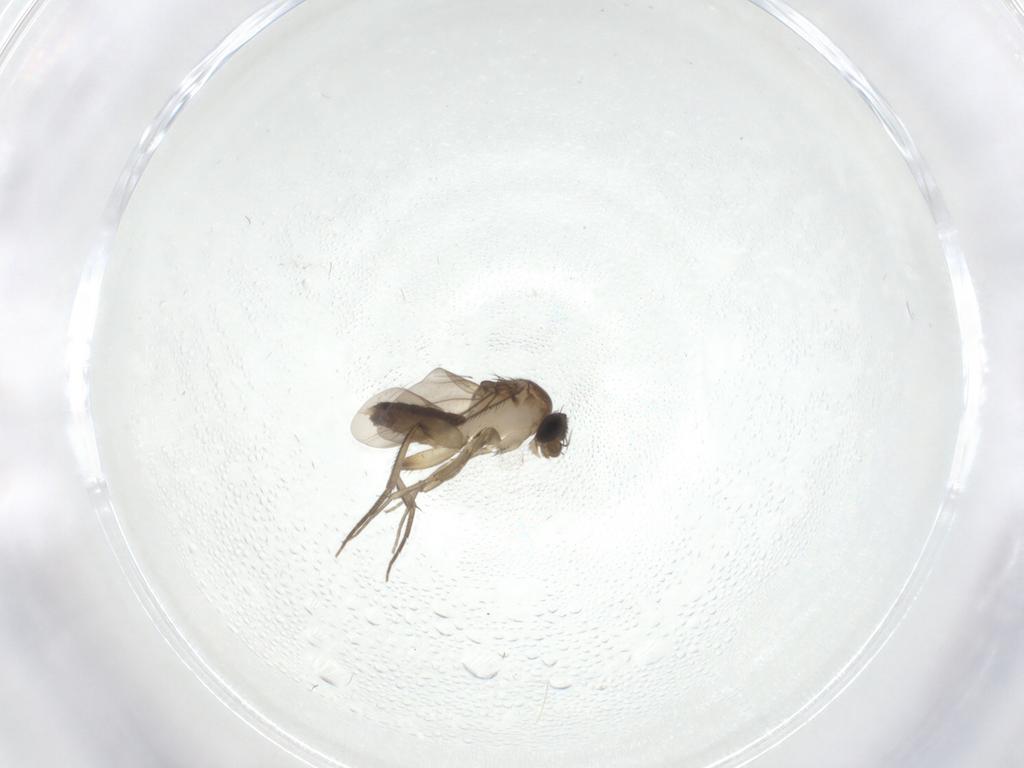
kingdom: Animalia
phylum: Arthropoda
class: Insecta
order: Diptera
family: Phoridae
